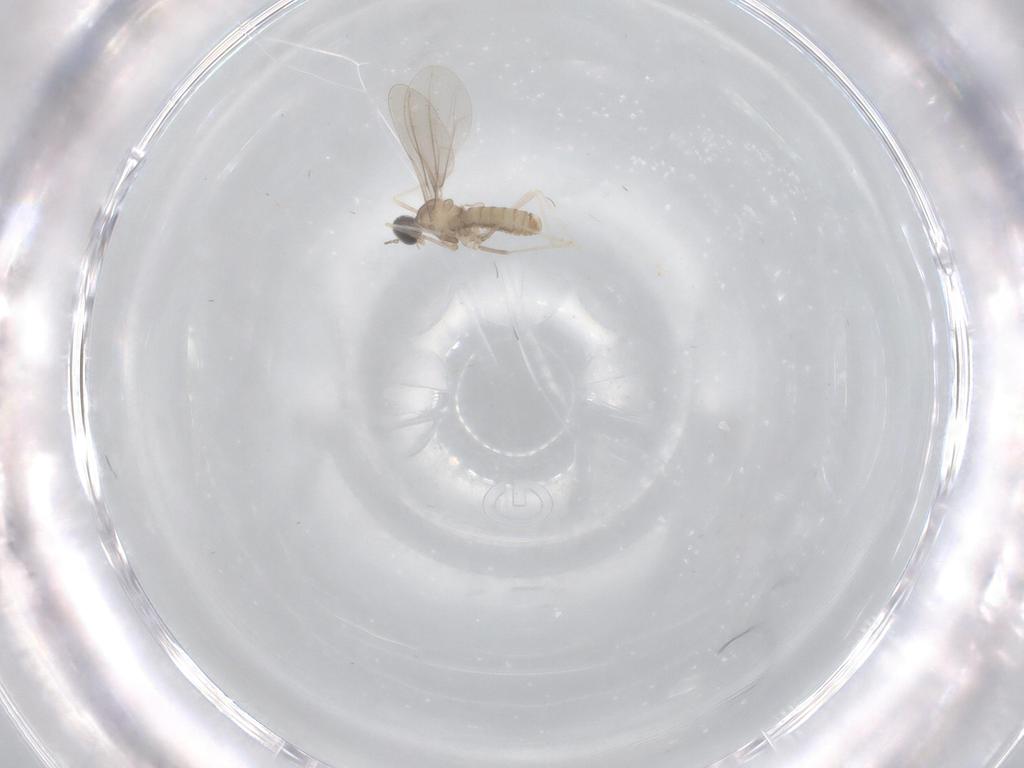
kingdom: Animalia
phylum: Arthropoda
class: Insecta
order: Diptera
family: Cecidomyiidae
